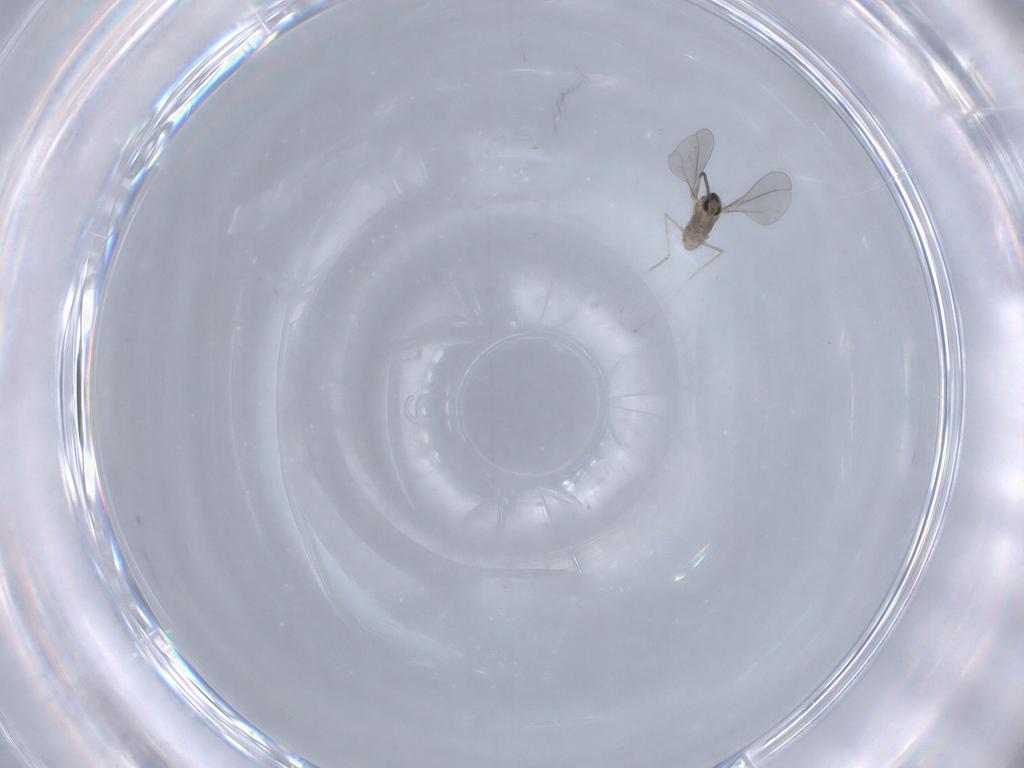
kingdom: Animalia
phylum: Arthropoda
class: Insecta
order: Diptera
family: Cecidomyiidae
